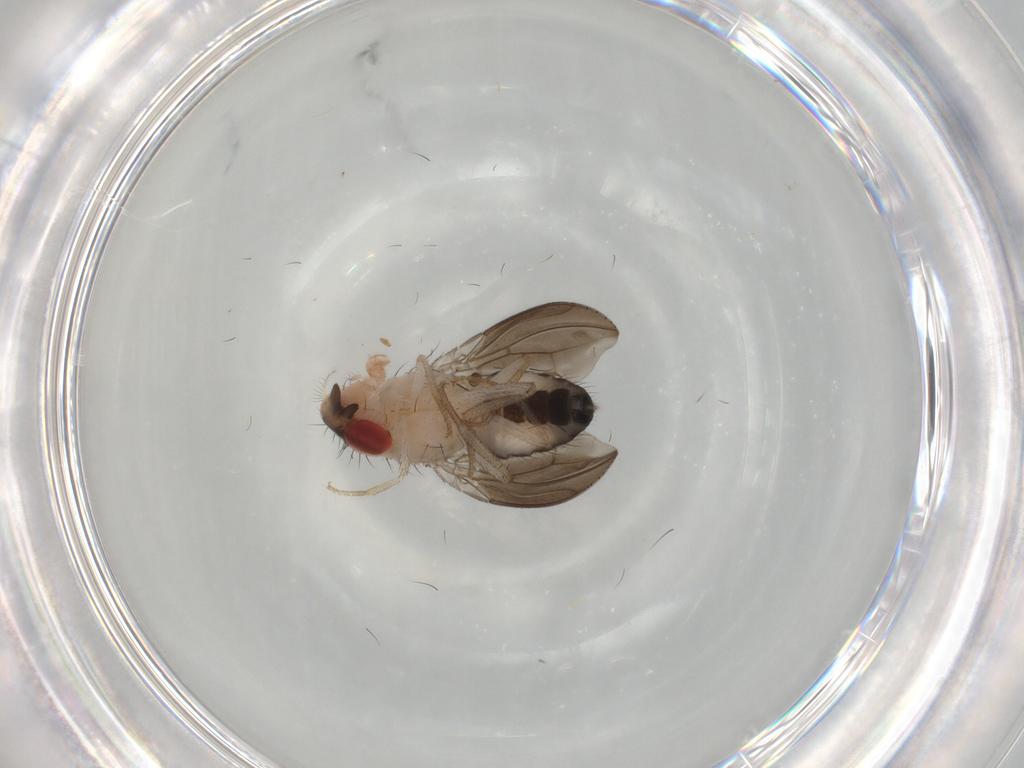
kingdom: Animalia
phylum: Arthropoda
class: Insecta
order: Diptera
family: Drosophilidae
